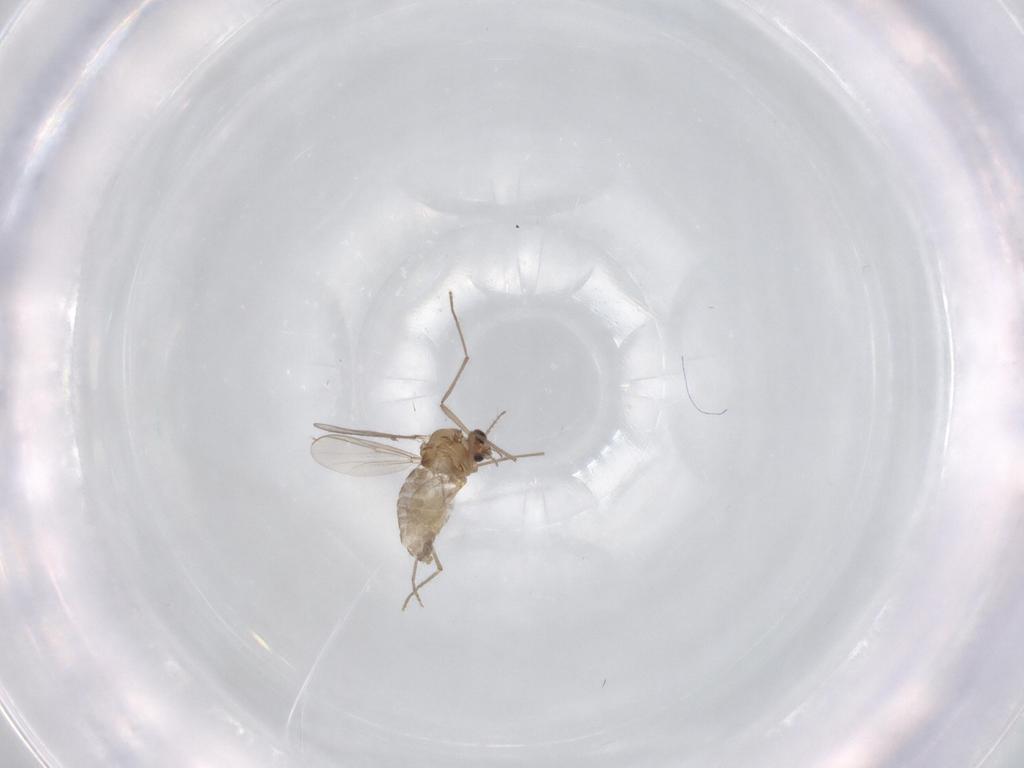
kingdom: Animalia
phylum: Arthropoda
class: Insecta
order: Diptera
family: Chironomidae
